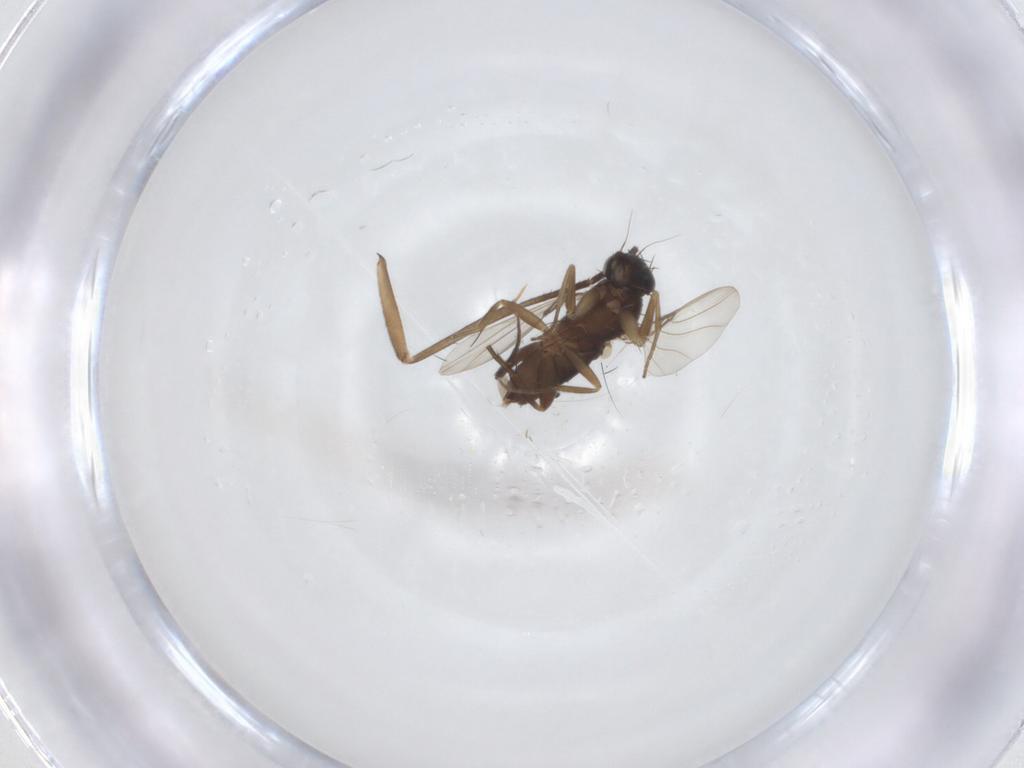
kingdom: Animalia
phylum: Arthropoda
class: Insecta
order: Diptera
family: Phoridae
